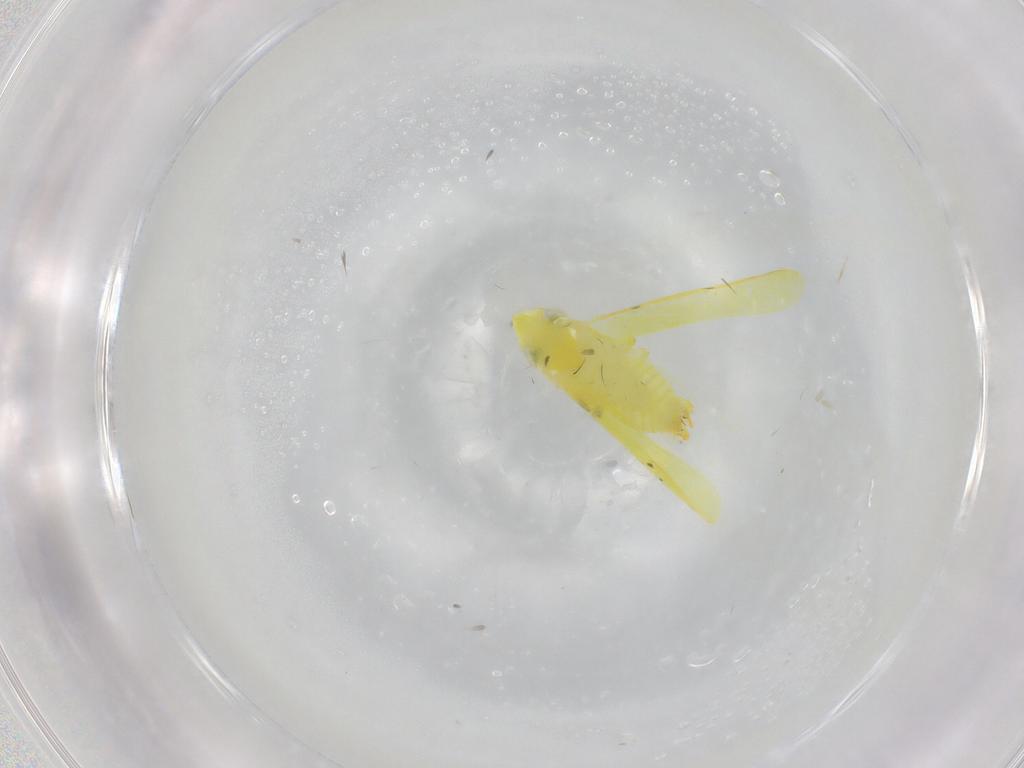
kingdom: Animalia
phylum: Arthropoda
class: Insecta
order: Hemiptera
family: Cicadellidae
